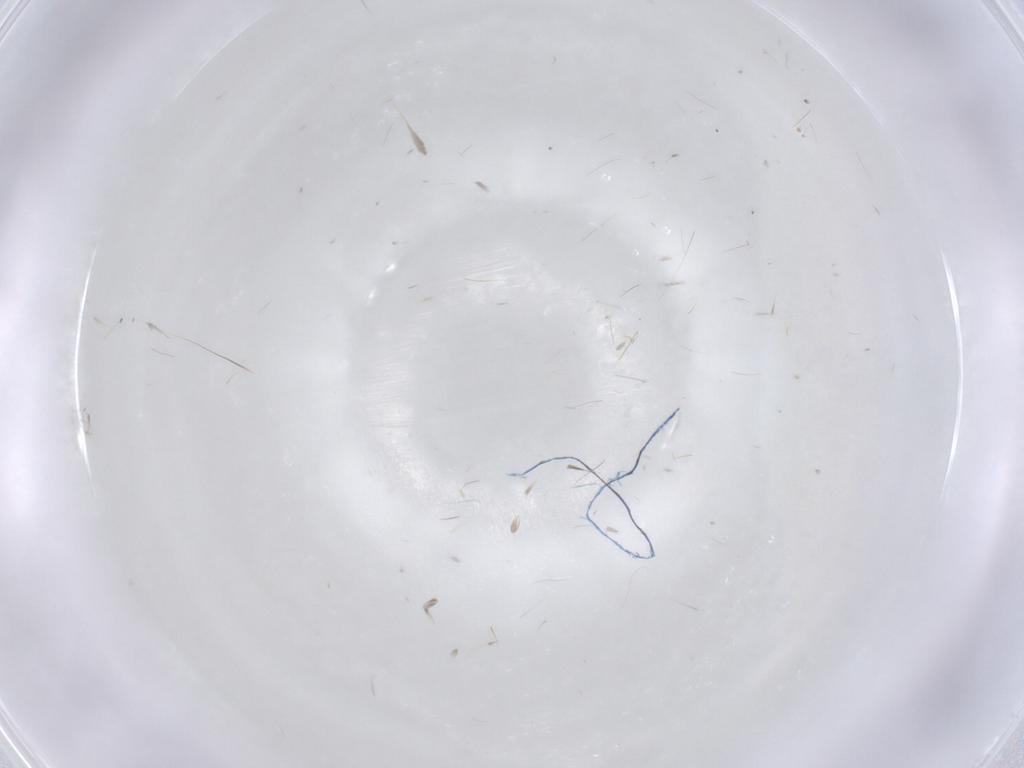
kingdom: Animalia
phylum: Arthropoda
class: Insecta
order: Hymenoptera
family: Mymaridae
